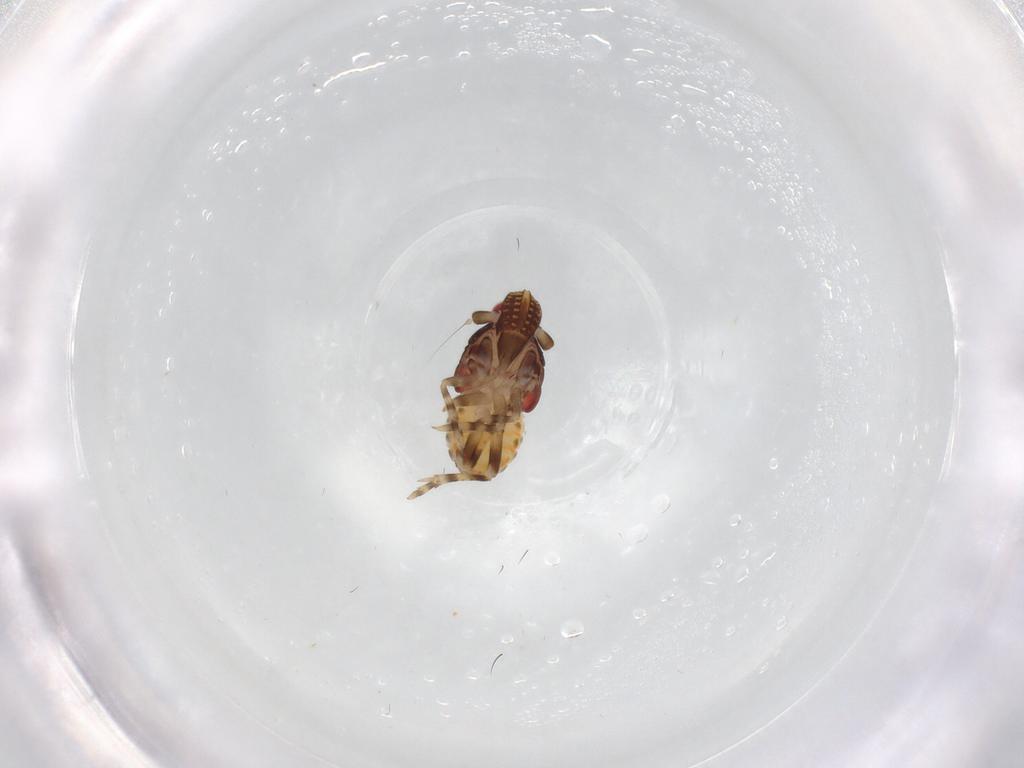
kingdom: Animalia
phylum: Arthropoda
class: Insecta
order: Hemiptera
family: Delphacidae
